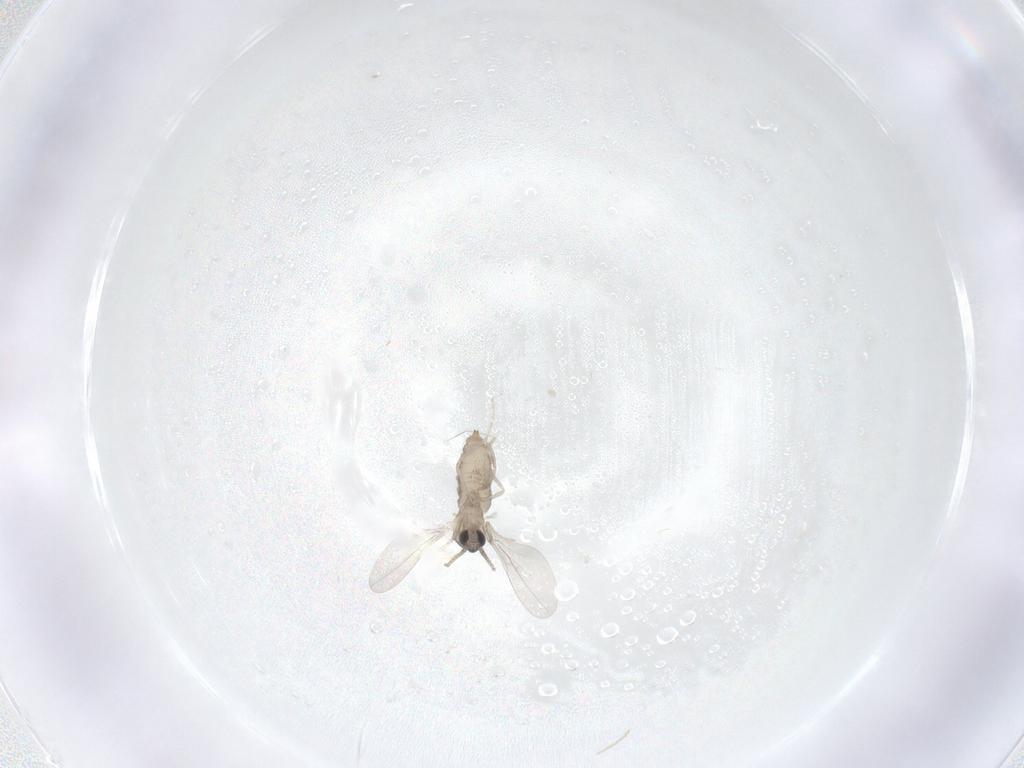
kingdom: Animalia
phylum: Arthropoda
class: Insecta
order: Diptera
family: Cecidomyiidae
